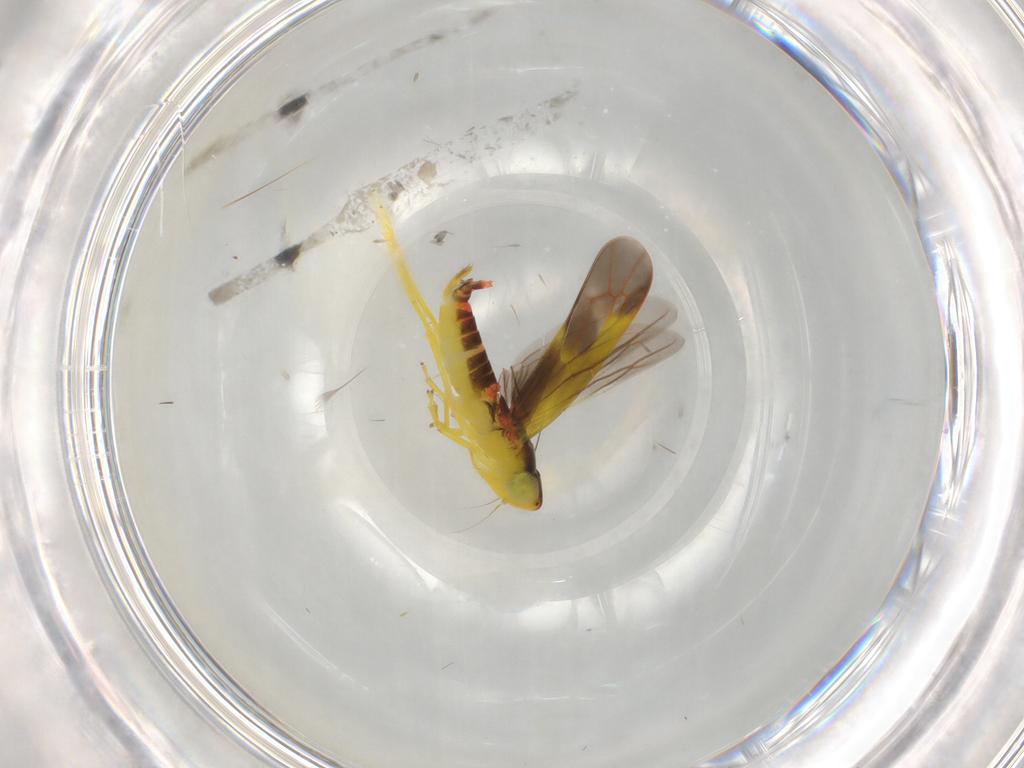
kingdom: Animalia
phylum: Arthropoda
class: Insecta
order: Hemiptera
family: Cicadellidae
